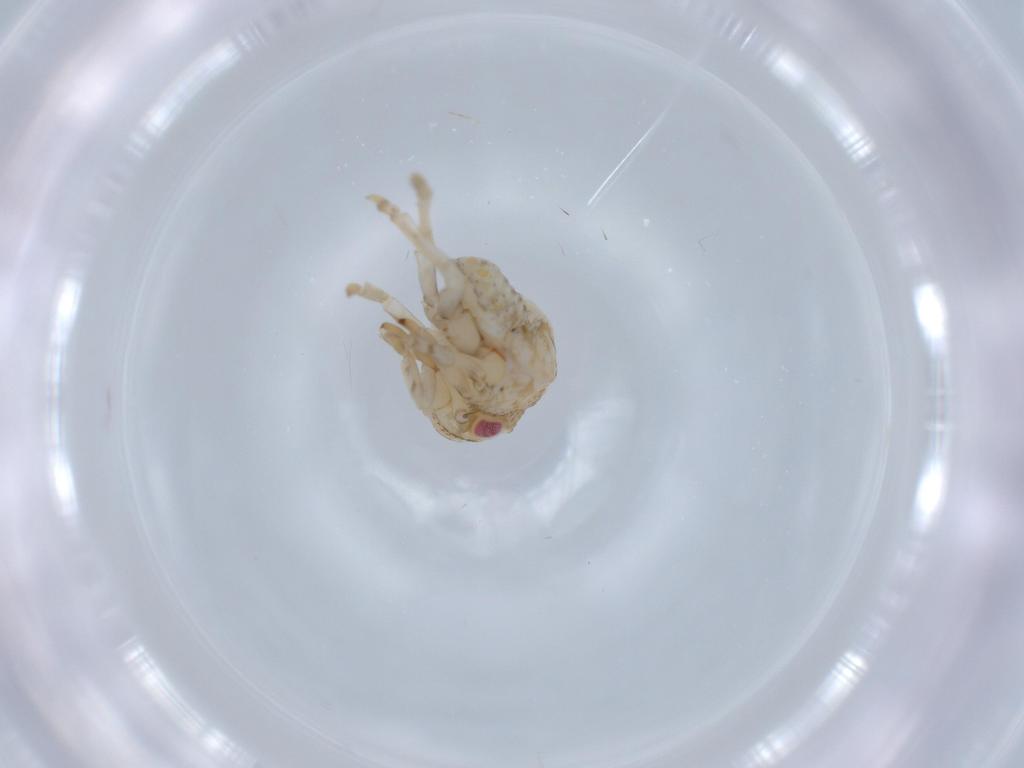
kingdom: Animalia
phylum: Arthropoda
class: Insecta
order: Hemiptera
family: Acanaloniidae
